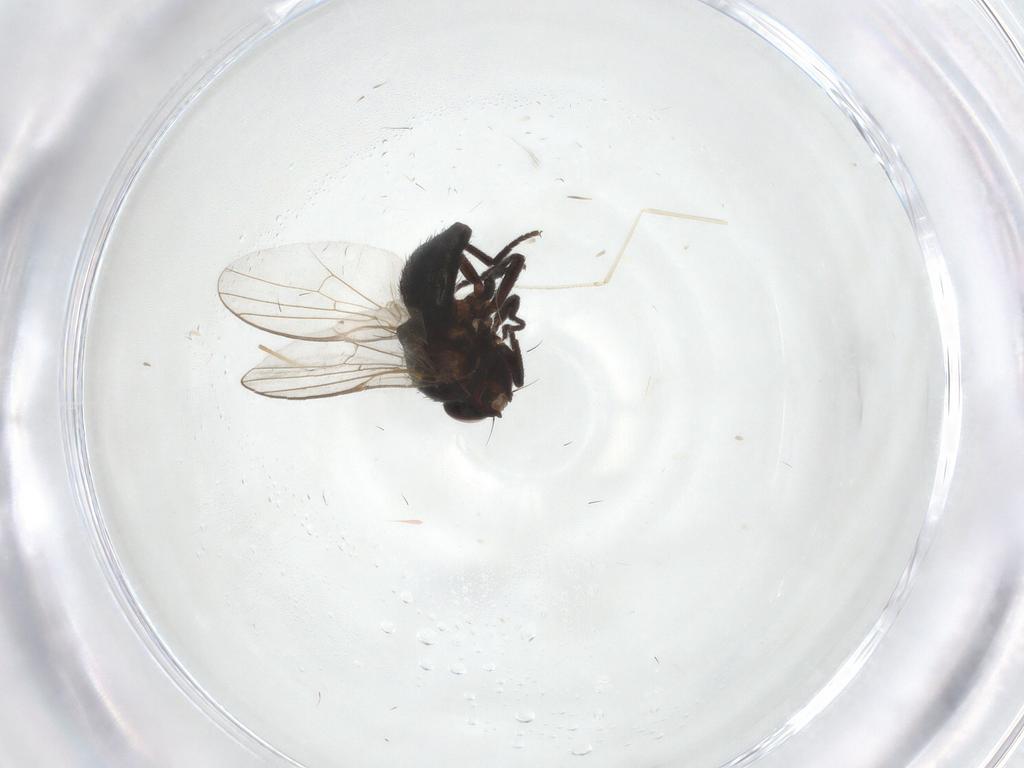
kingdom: Animalia
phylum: Arthropoda
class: Insecta
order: Diptera
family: Agromyzidae
